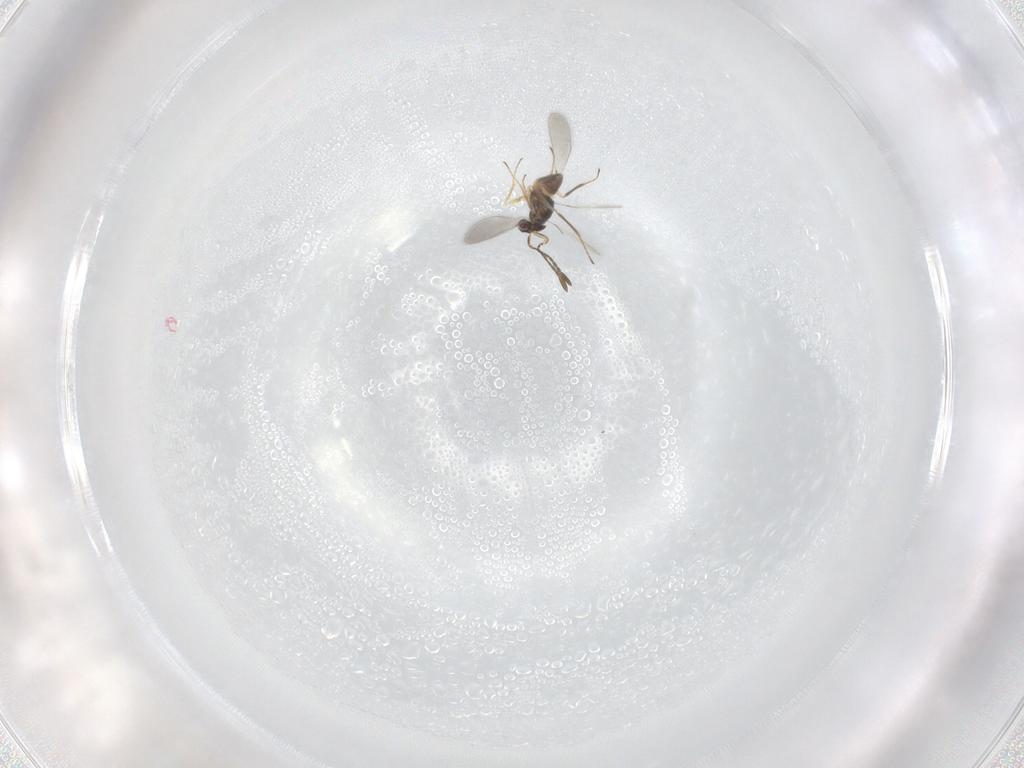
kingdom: Animalia
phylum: Arthropoda
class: Insecta
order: Hymenoptera
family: Mymaridae
